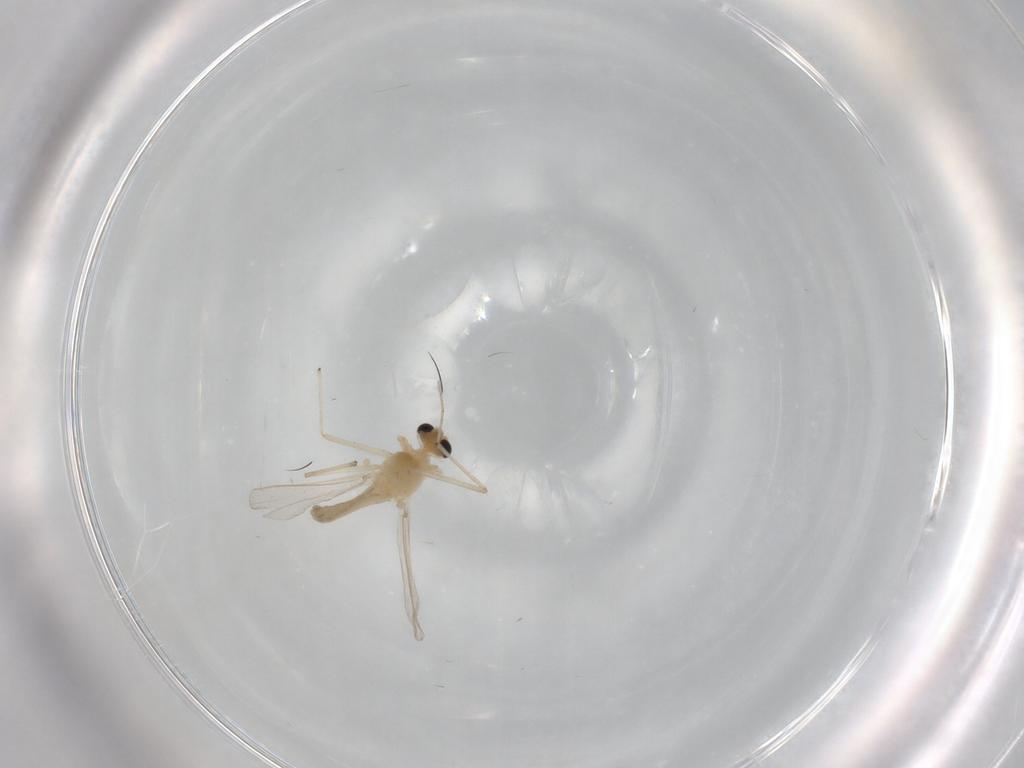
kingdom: Animalia
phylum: Arthropoda
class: Insecta
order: Diptera
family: Chironomidae
